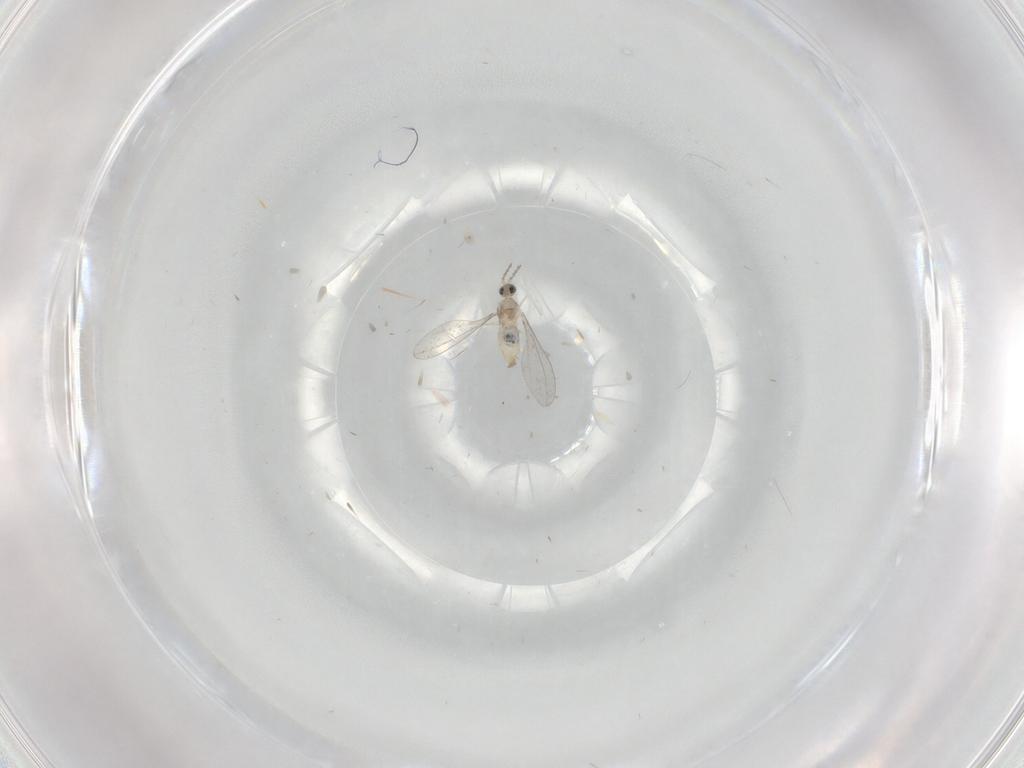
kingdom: Animalia
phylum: Arthropoda
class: Insecta
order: Diptera
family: Cecidomyiidae
